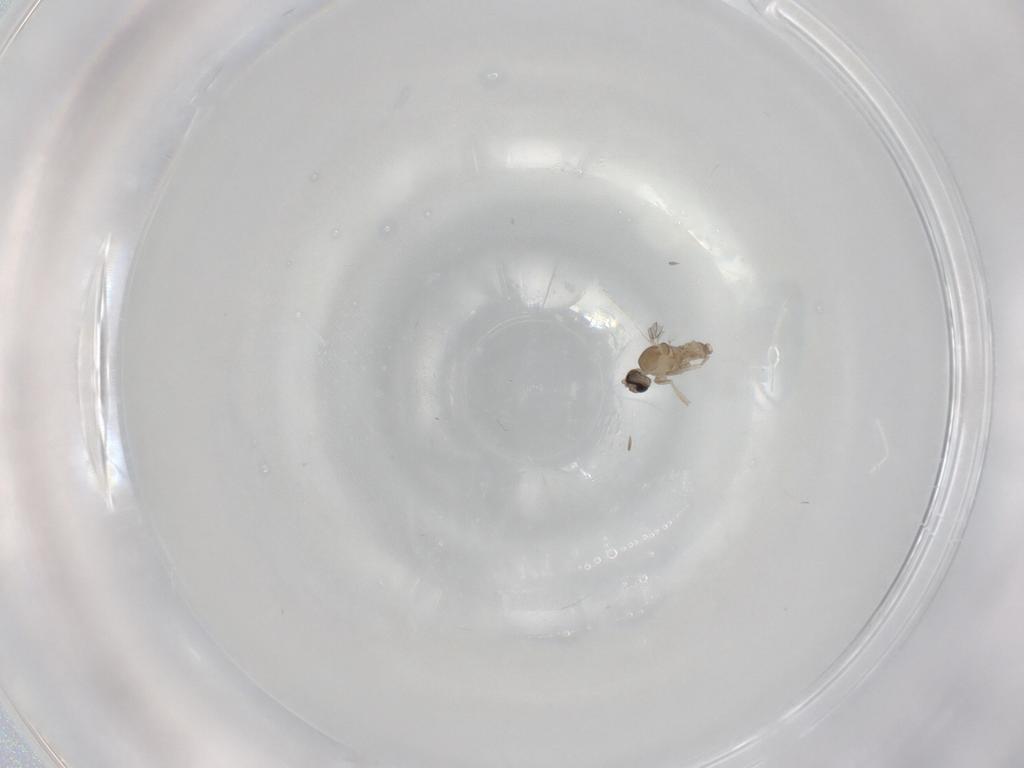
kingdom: Animalia
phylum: Arthropoda
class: Insecta
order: Diptera
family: Cecidomyiidae
